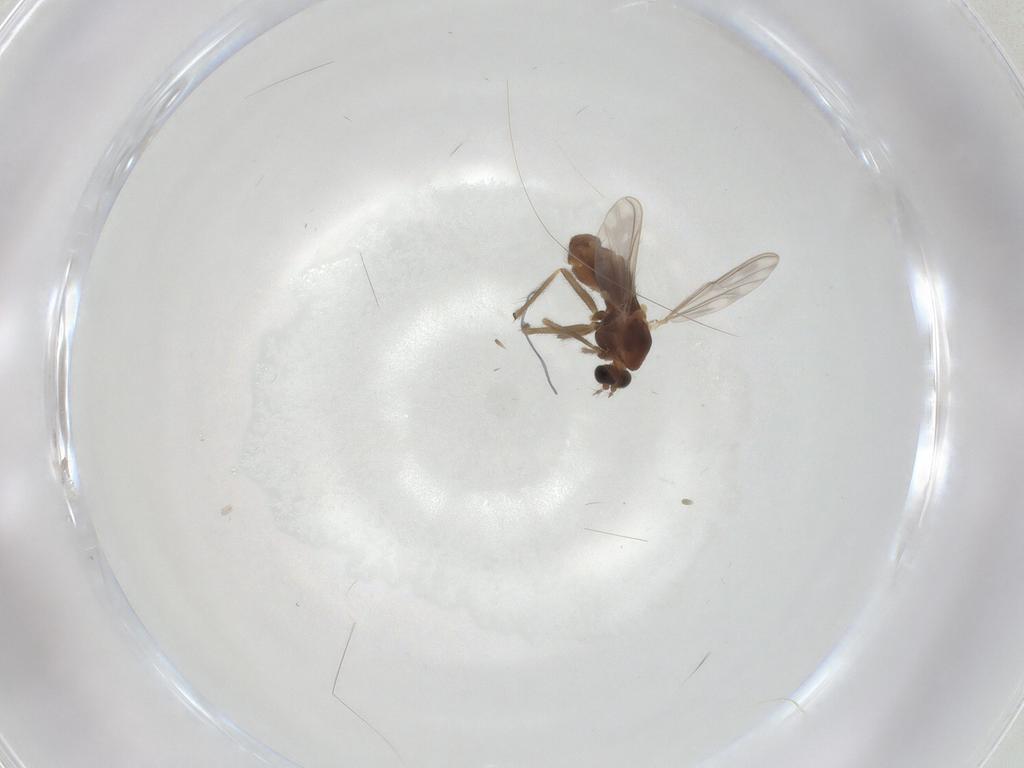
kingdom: Animalia
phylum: Arthropoda
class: Insecta
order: Diptera
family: Chironomidae
